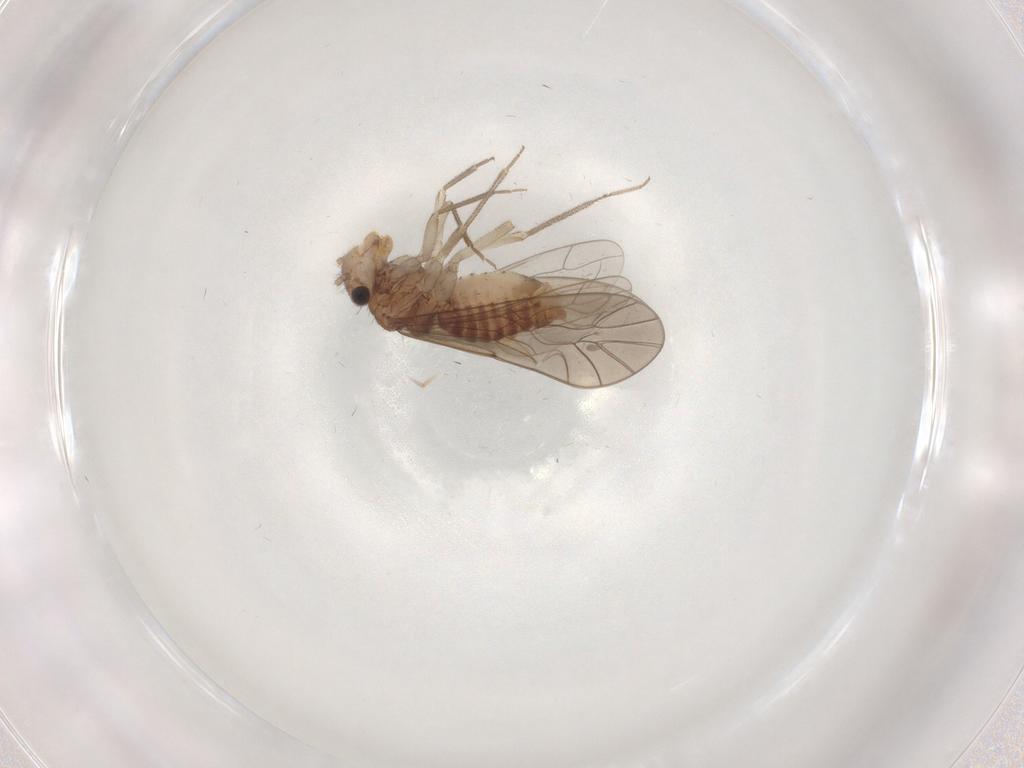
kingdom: Animalia
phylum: Arthropoda
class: Insecta
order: Psocodea
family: Caeciliusidae
